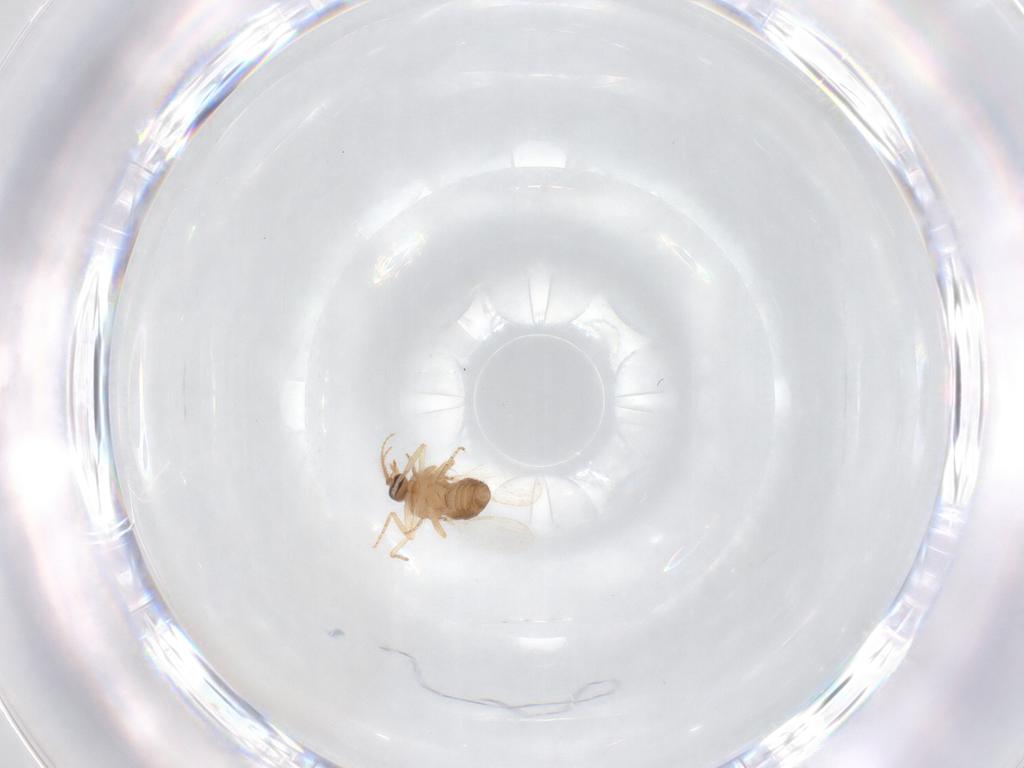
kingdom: Animalia
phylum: Arthropoda
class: Insecta
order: Diptera
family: Ceratopogonidae
